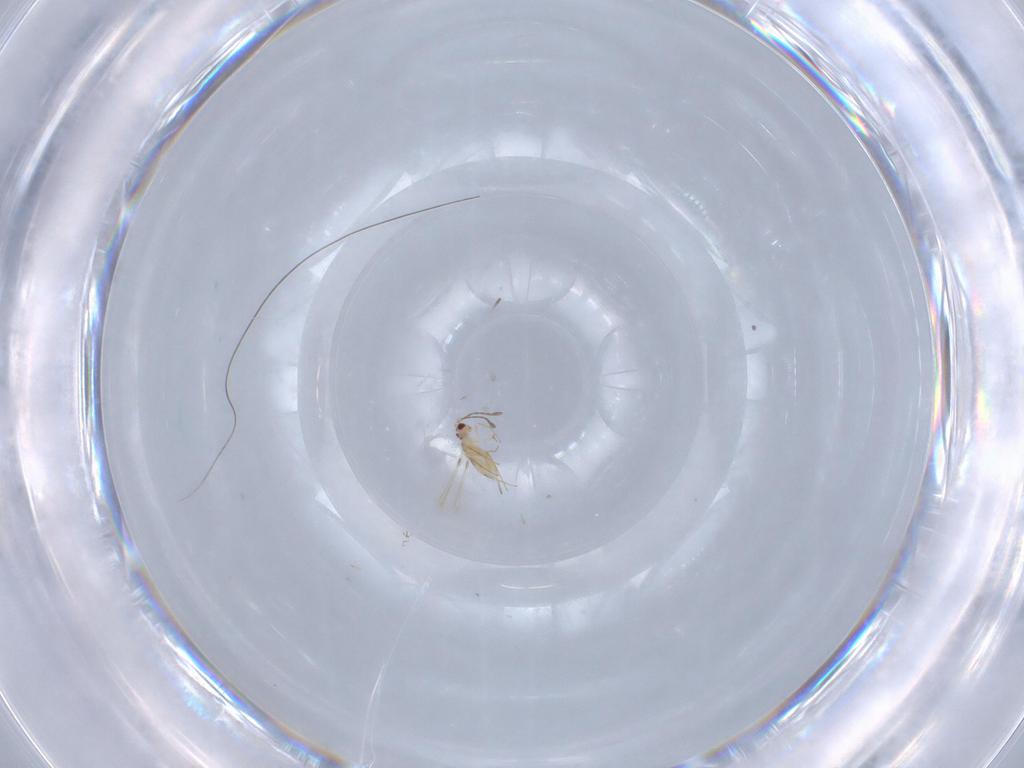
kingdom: Animalia
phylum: Arthropoda
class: Insecta
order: Hymenoptera
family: Mymaridae
